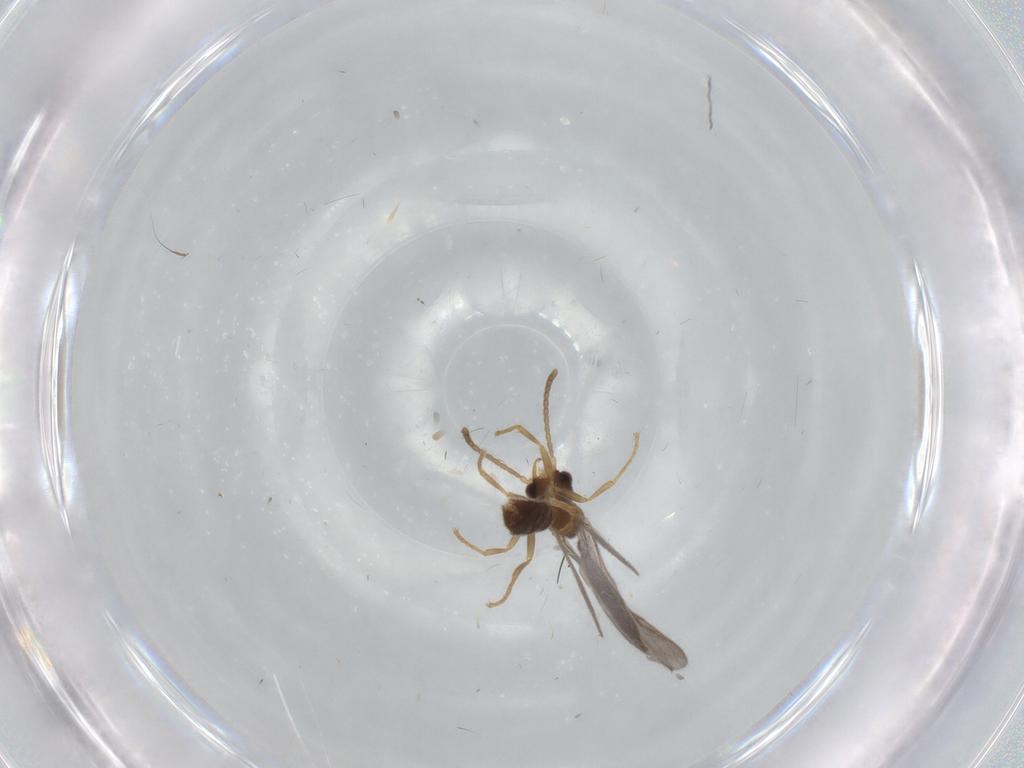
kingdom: Animalia
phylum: Arthropoda
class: Insecta
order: Hymenoptera
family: Formicidae
